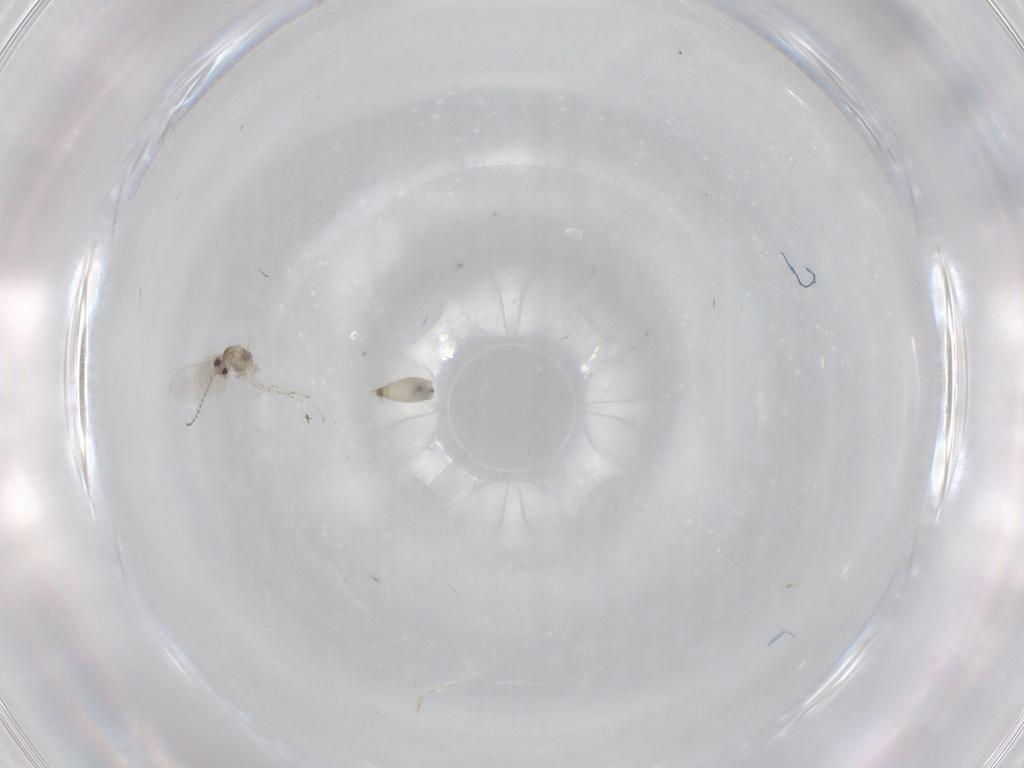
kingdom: Animalia
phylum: Arthropoda
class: Insecta
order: Diptera
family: Cecidomyiidae
